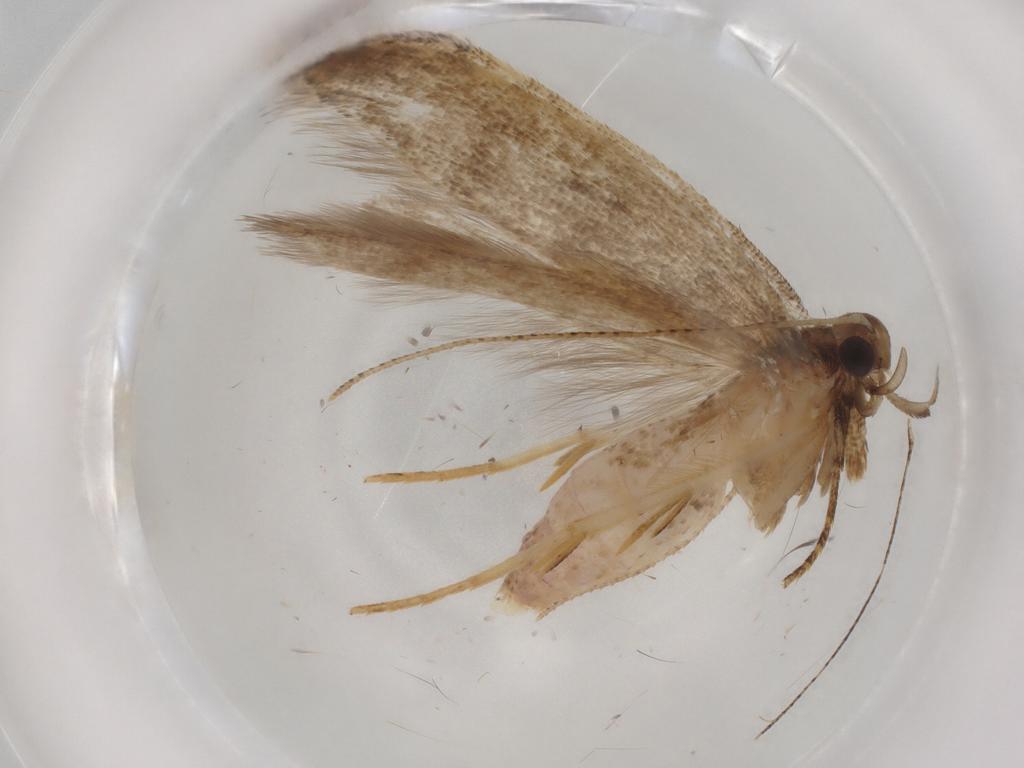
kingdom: Animalia
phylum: Arthropoda
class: Insecta
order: Lepidoptera
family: Gelechiidae
